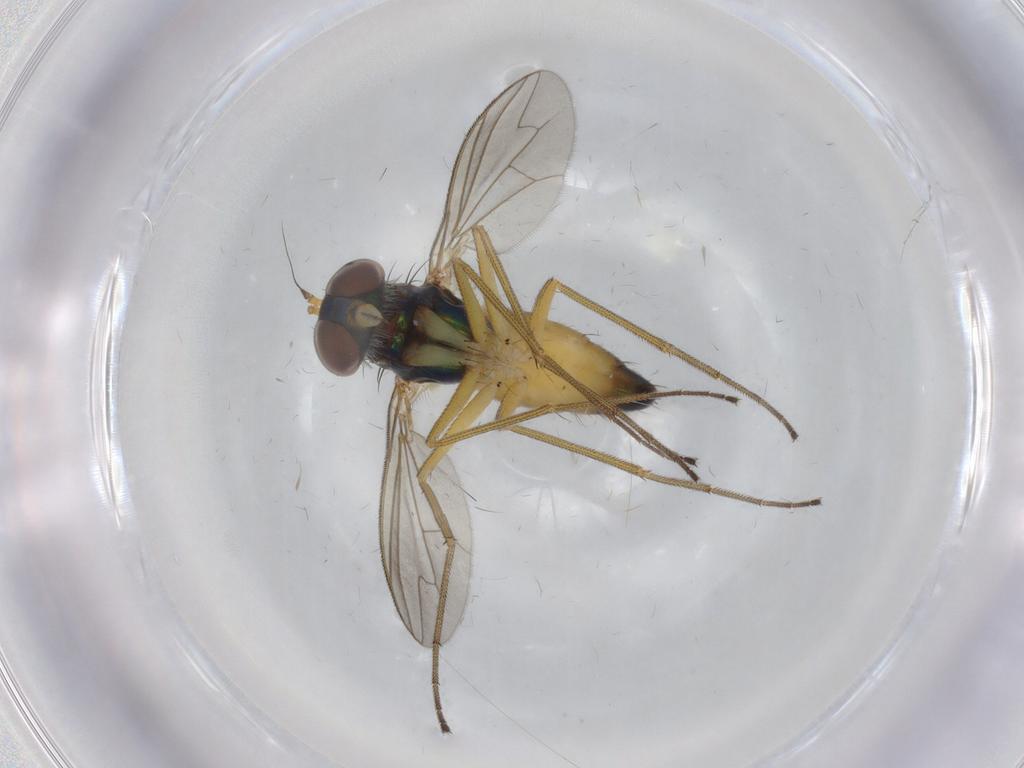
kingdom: Animalia
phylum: Arthropoda
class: Insecta
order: Diptera
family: Dolichopodidae
